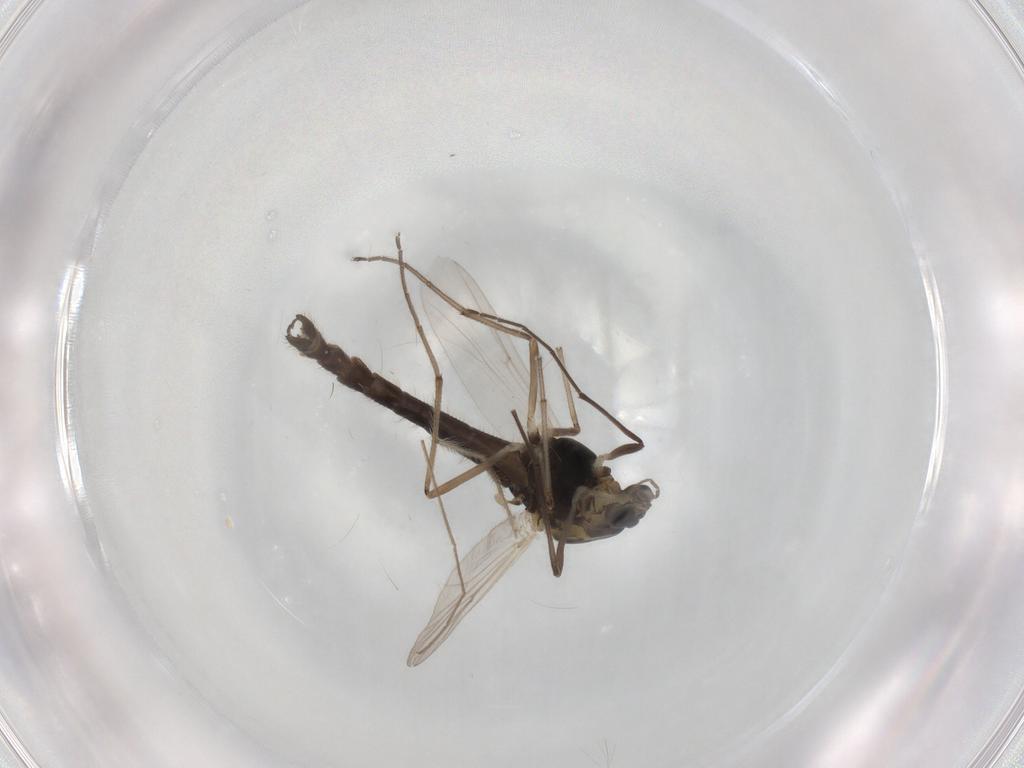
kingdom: Animalia
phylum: Arthropoda
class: Insecta
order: Diptera
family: Chironomidae
